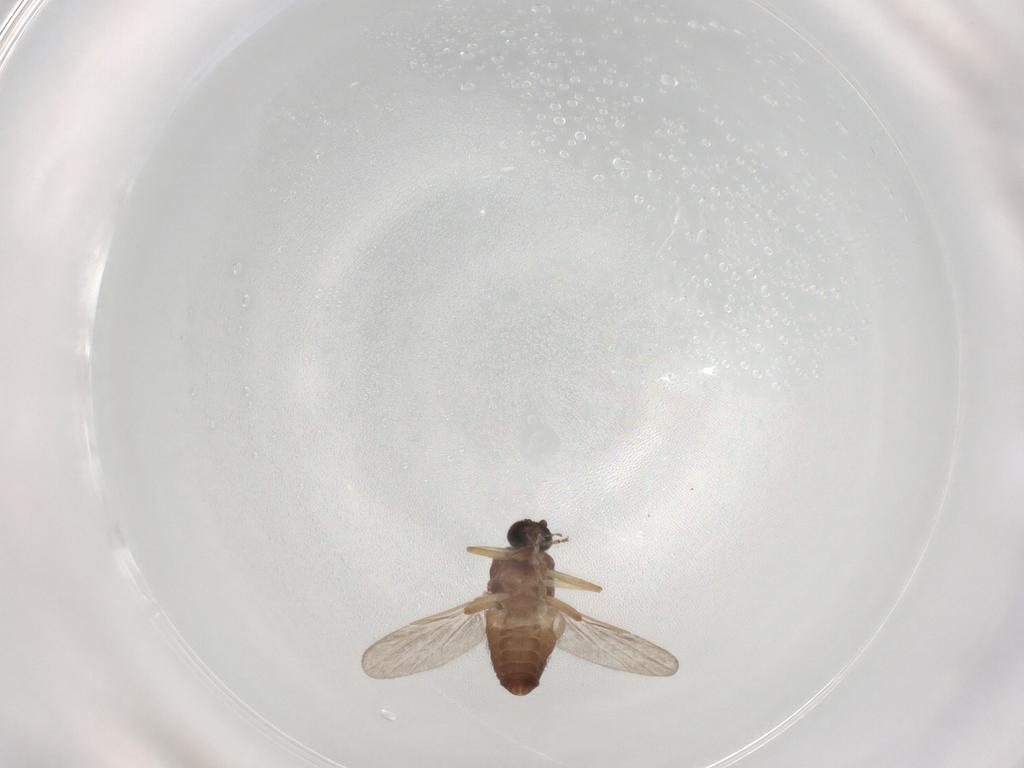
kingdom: Animalia
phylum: Arthropoda
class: Insecta
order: Diptera
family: Ceratopogonidae
